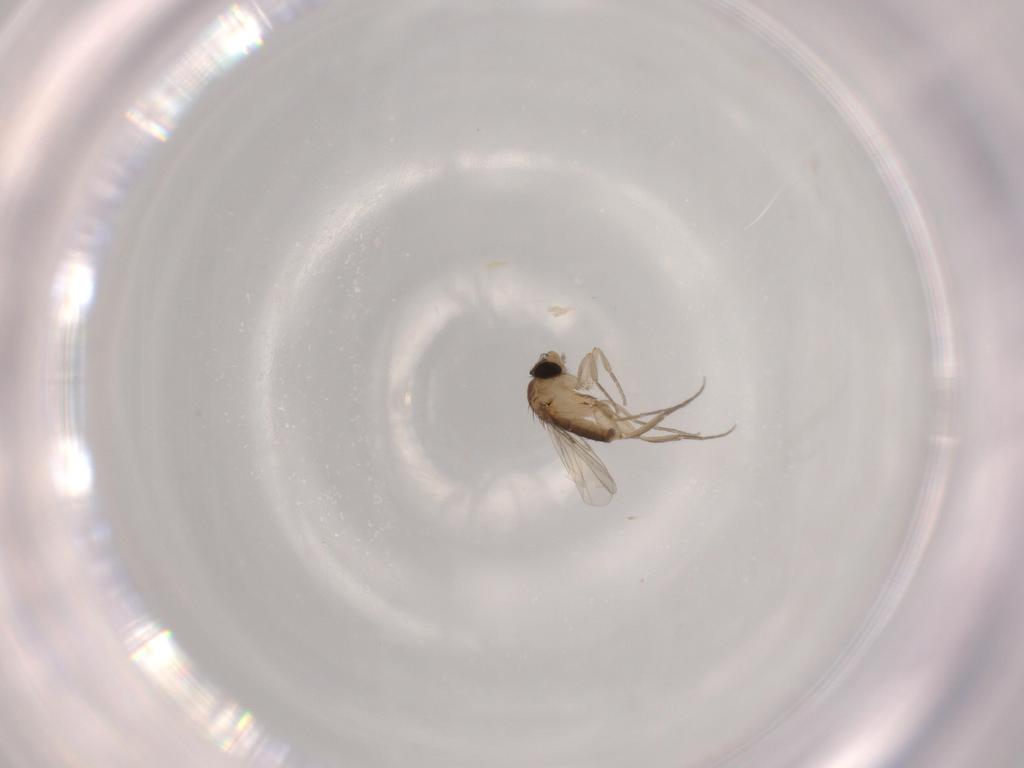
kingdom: Animalia
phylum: Arthropoda
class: Insecta
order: Diptera
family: Phoridae
